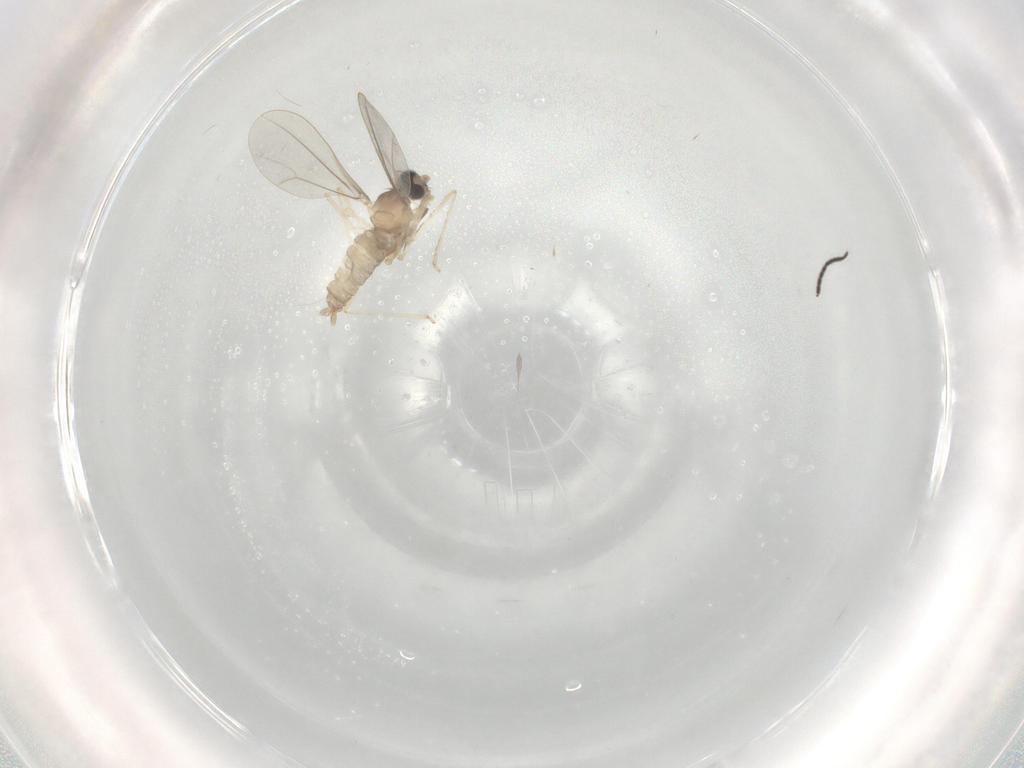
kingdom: Animalia
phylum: Arthropoda
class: Insecta
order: Diptera
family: Cecidomyiidae
